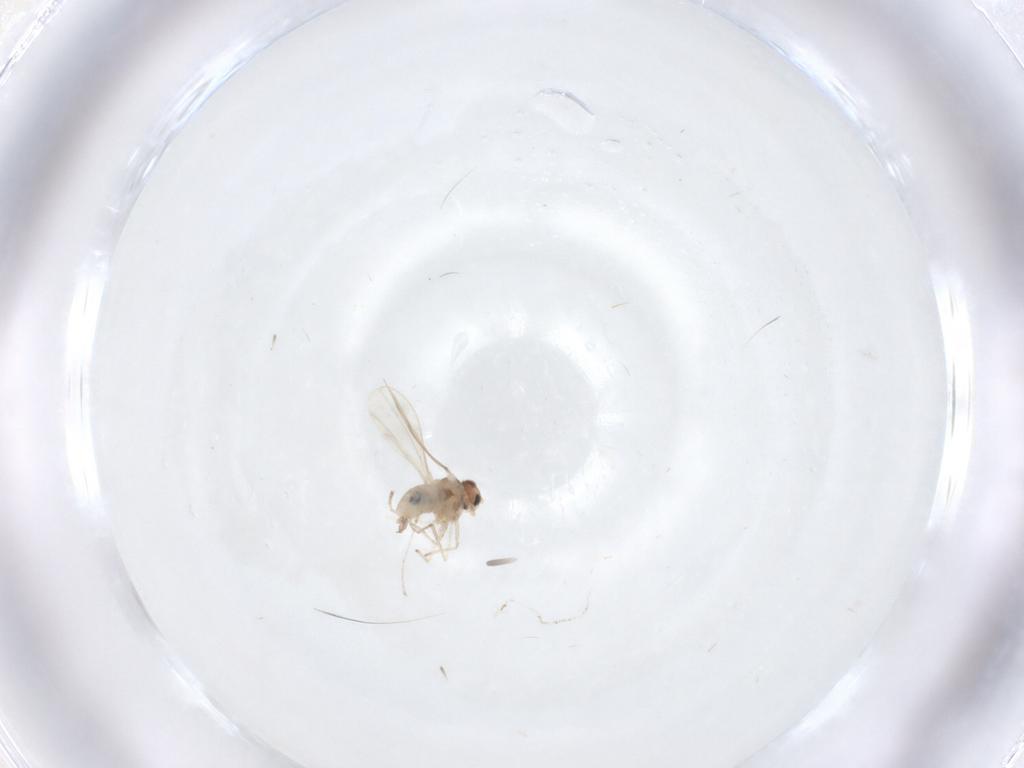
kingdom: Animalia
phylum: Arthropoda
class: Insecta
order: Diptera
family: Cecidomyiidae
